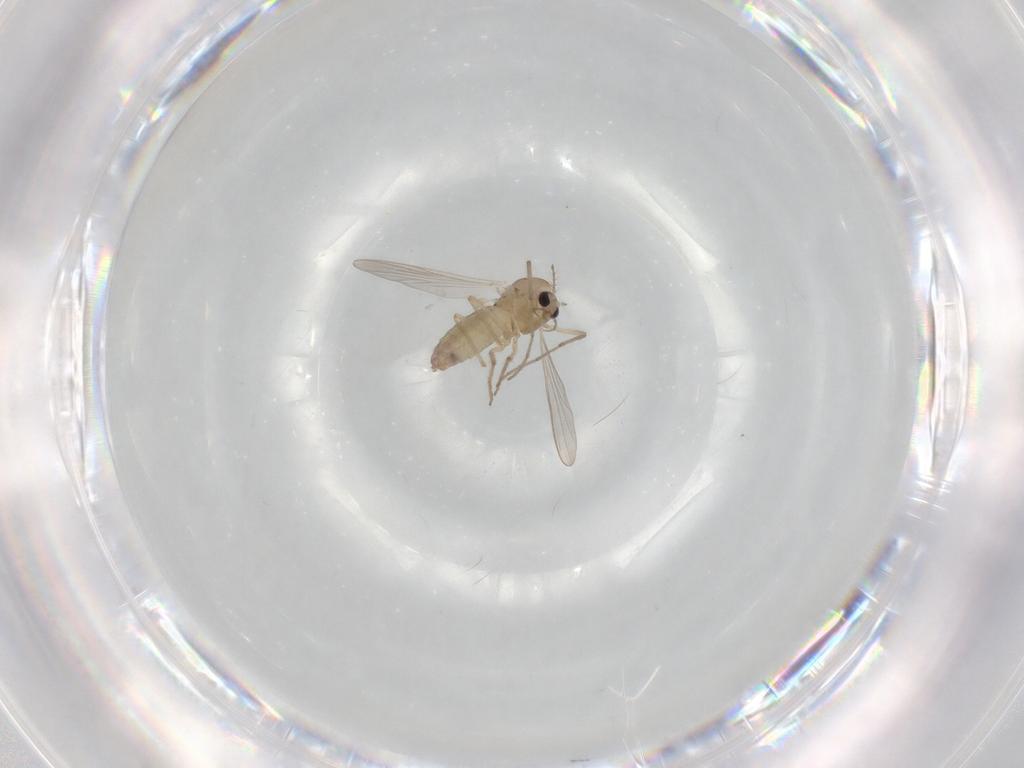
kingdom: Animalia
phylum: Arthropoda
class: Insecta
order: Diptera
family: Chironomidae
